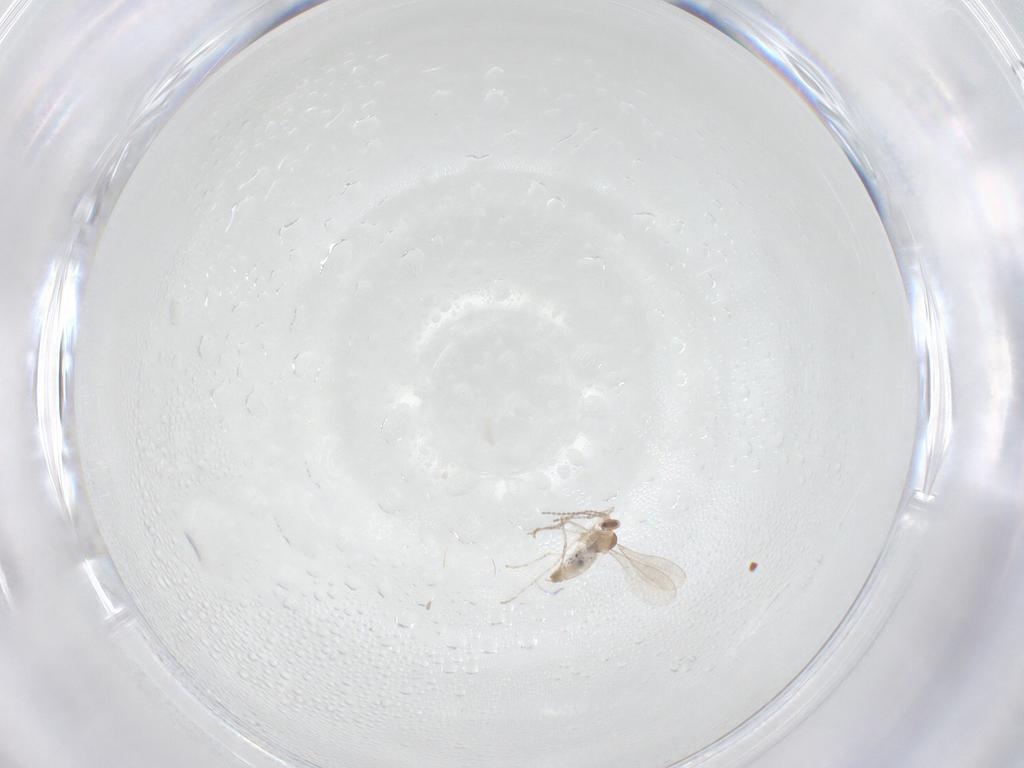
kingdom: Animalia
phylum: Arthropoda
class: Insecta
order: Diptera
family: Cecidomyiidae
